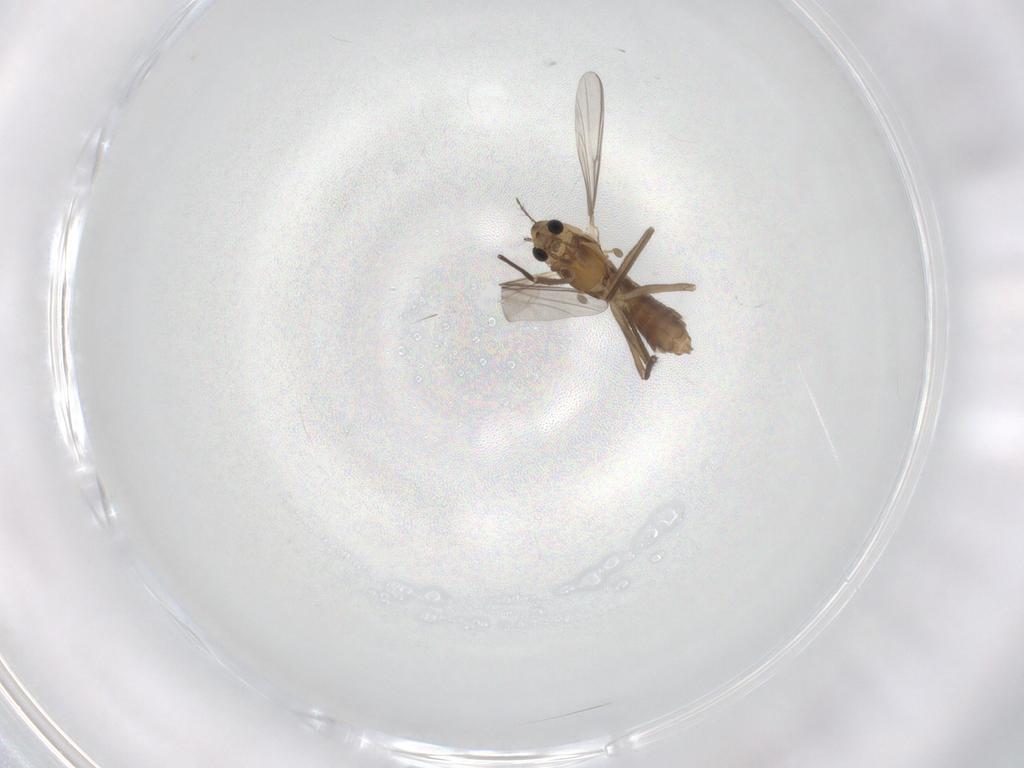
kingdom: Animalia
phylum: Arthropoda
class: Insecta
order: Diptera
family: Chironomidae
